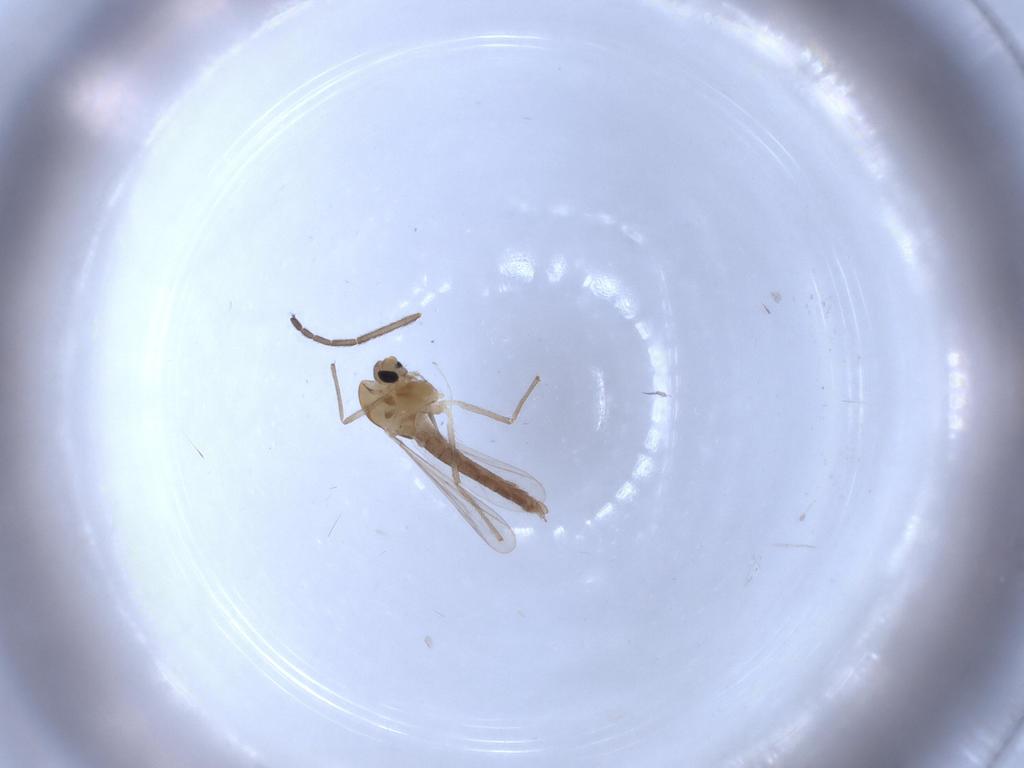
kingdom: Animalia
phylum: Arthropoda
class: Insecta
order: Diptera
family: Chironomidae
